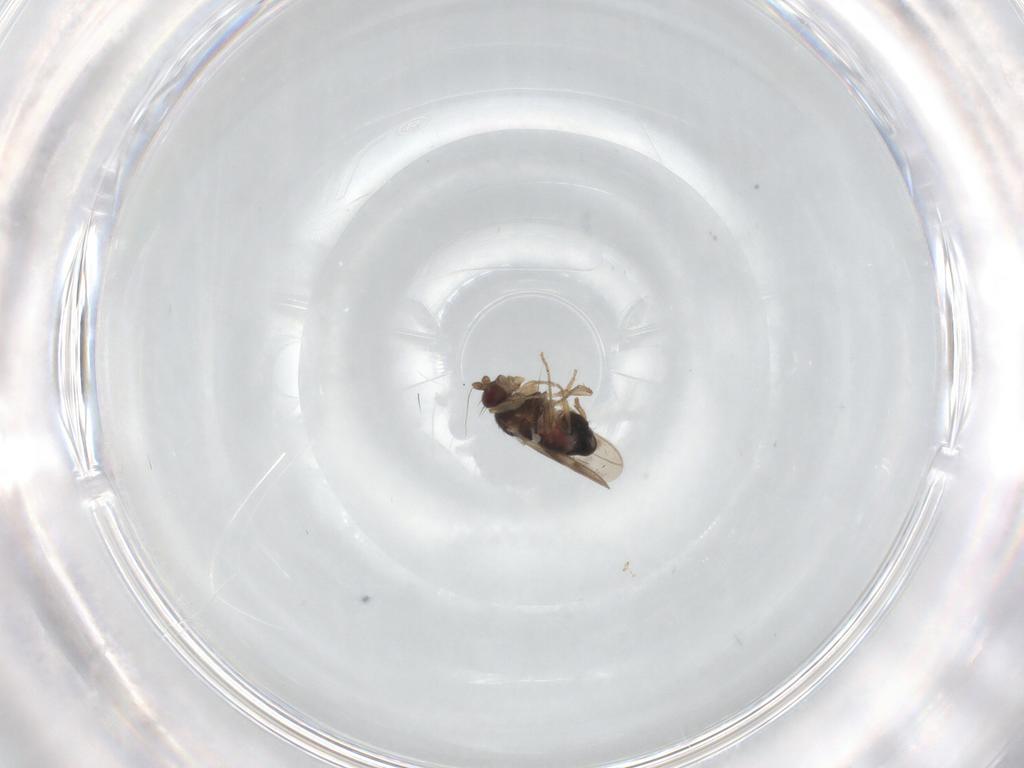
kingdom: Animalia
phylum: Arthropoda
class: Insecta
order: Diptera
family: Sphaeroceridae
